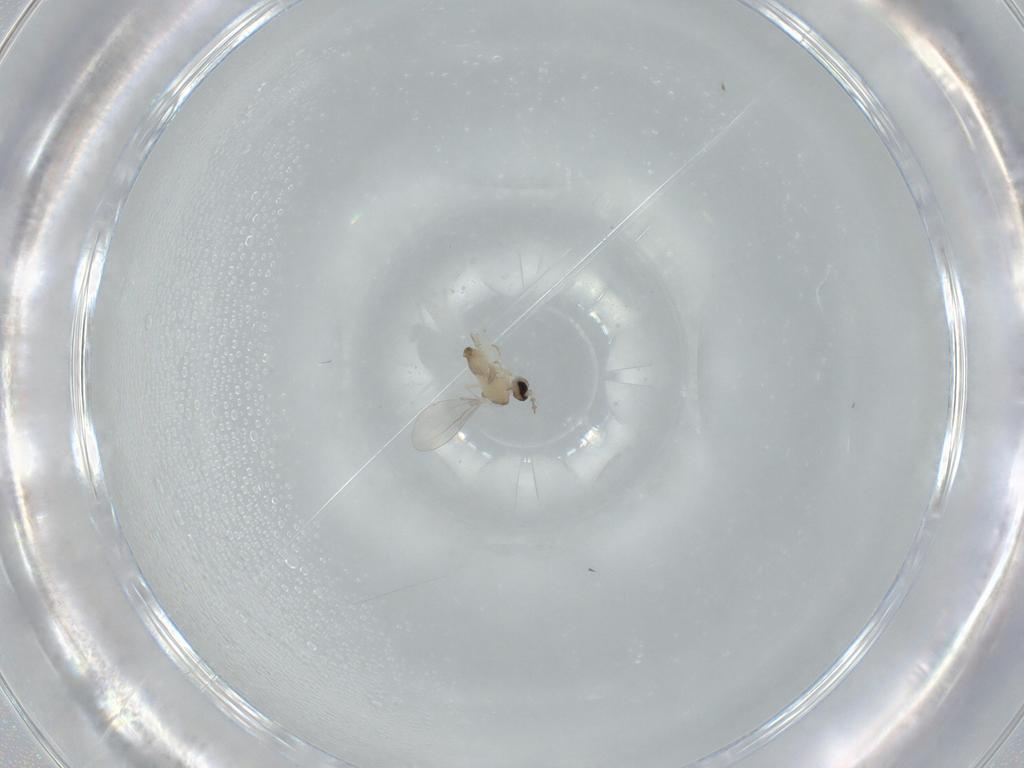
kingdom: Animalia
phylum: Arthropoda
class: Insecta
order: Diptera
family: Cecidomyiidae
